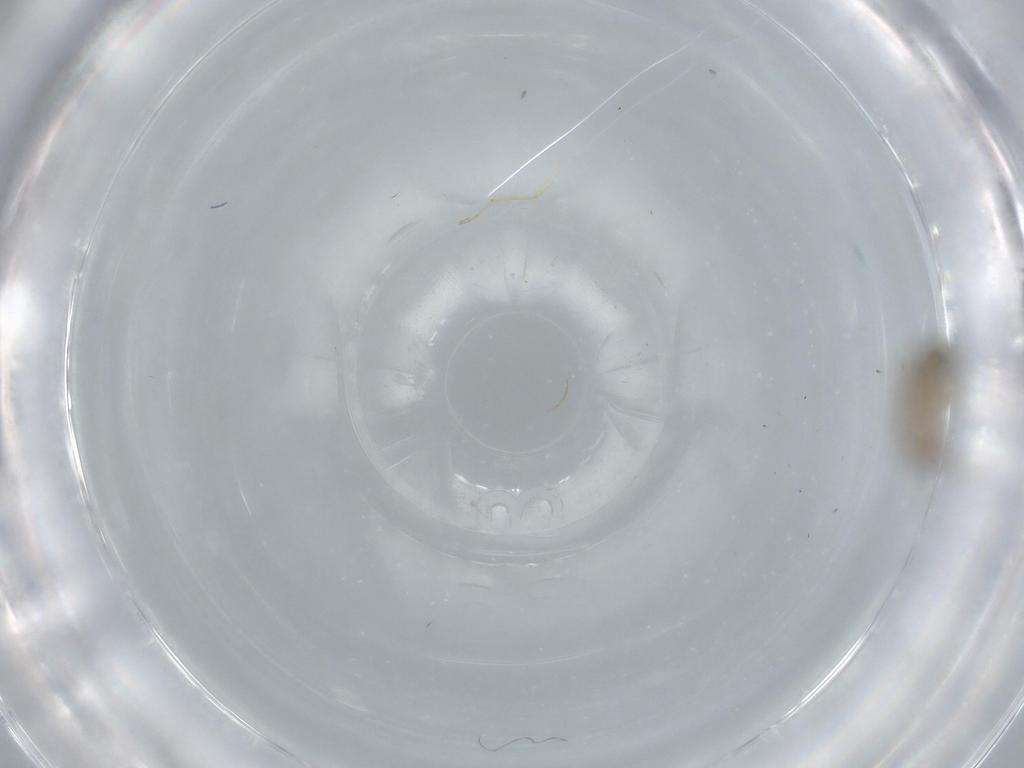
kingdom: Animalia
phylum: Arthropoda
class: Insecta
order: Diptera
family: Chironomidae
